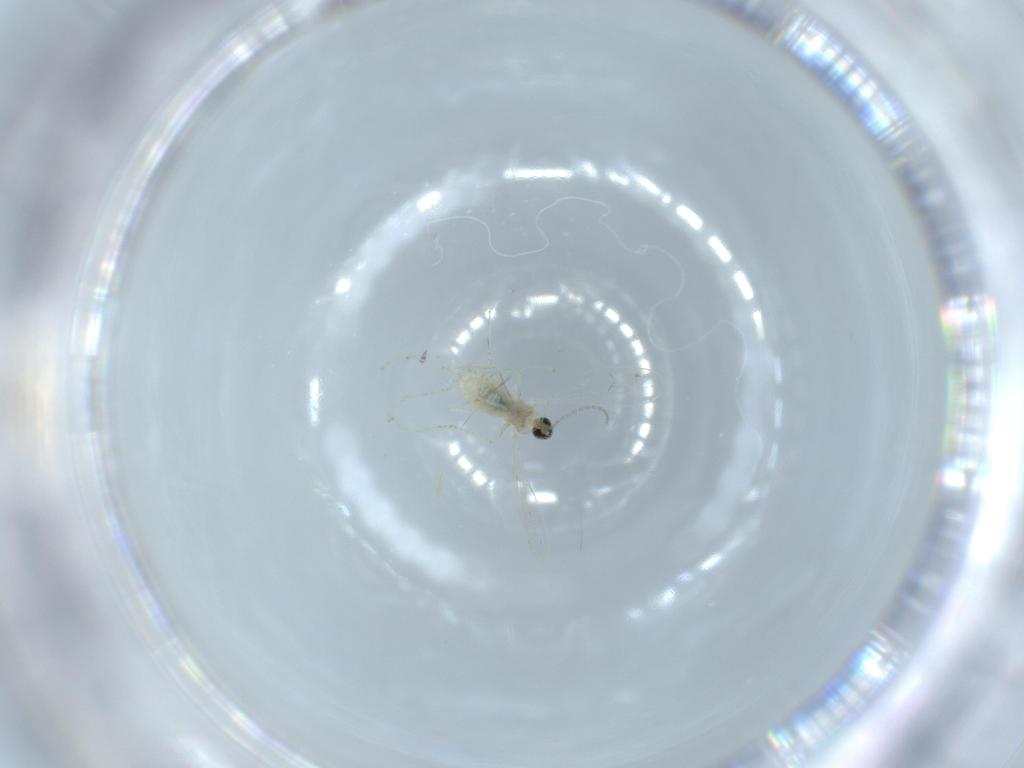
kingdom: Animalia
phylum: Arthropoda
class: Insecta
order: Diptera
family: Cecidomyiidae
